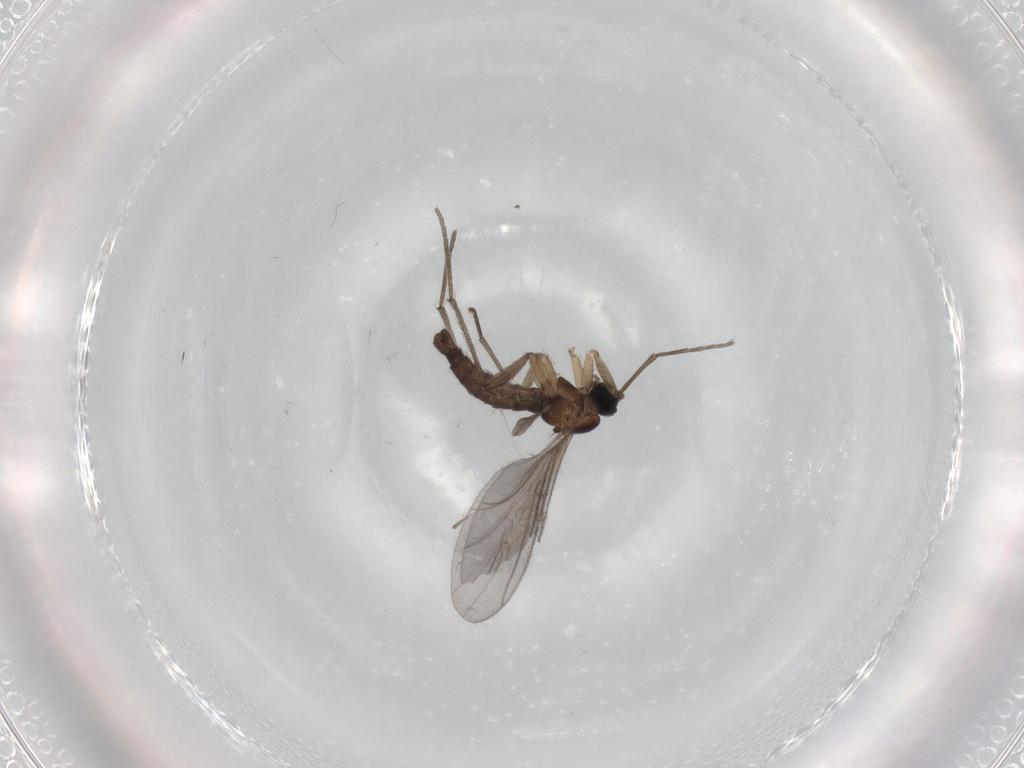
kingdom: Animalia
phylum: Arthropoda
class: Insecta
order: Diptera
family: Sciaridae
